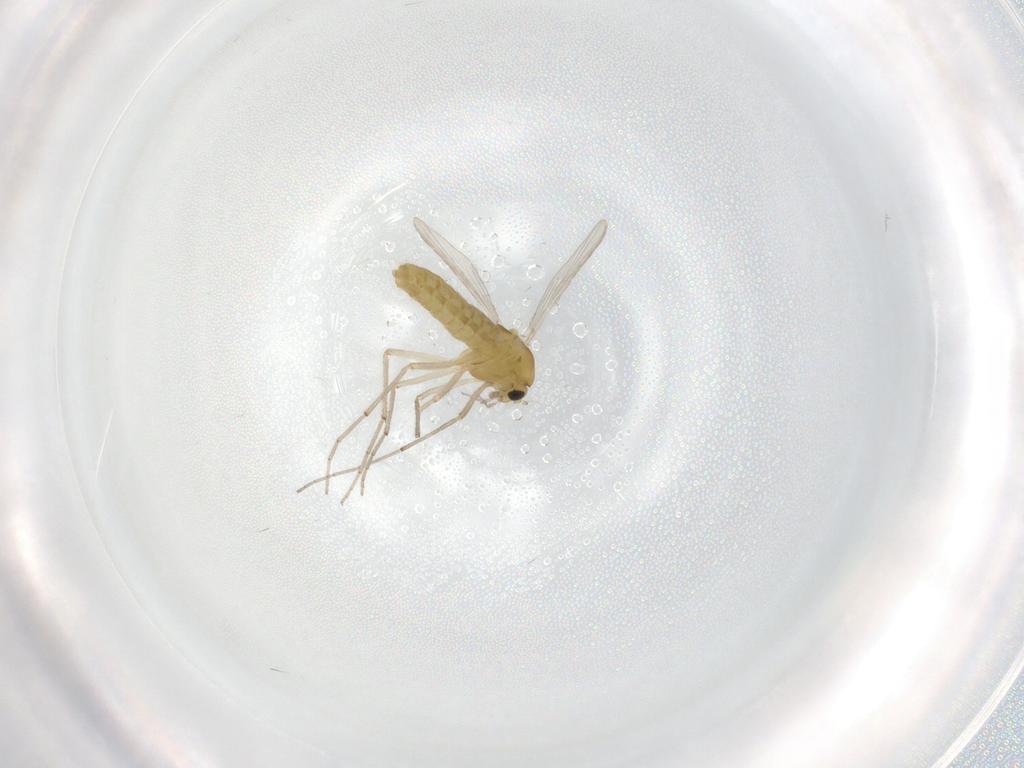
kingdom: Animalia
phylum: Arthropoda
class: Insecta
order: Diptera
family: Chironomidae
